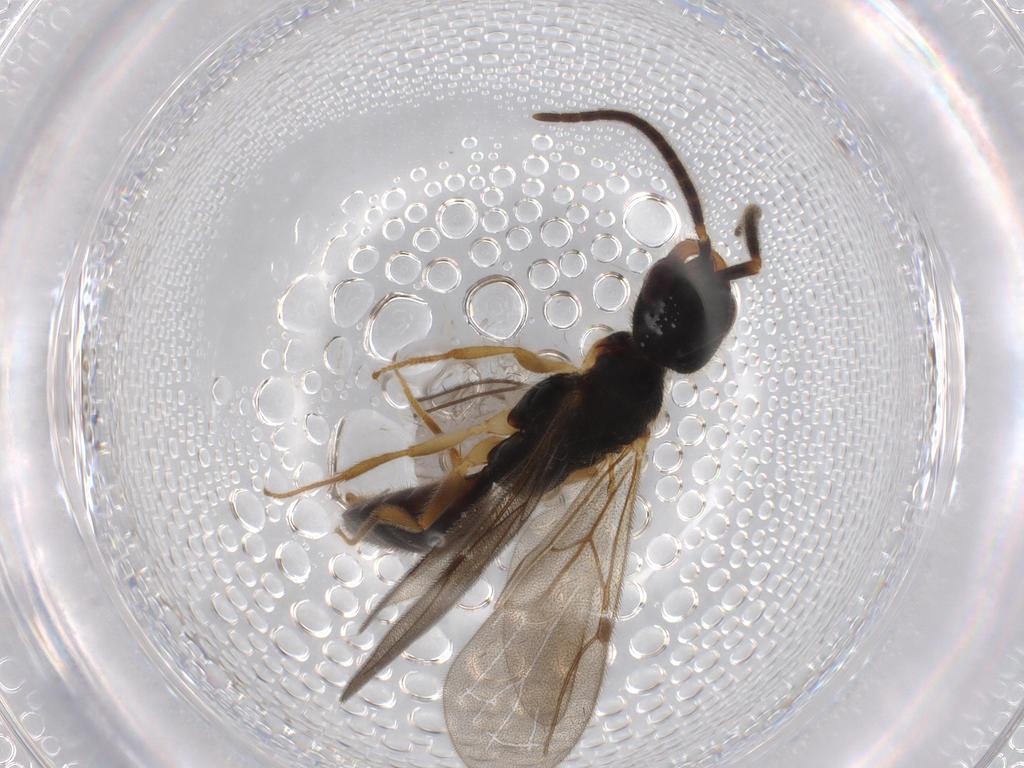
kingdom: Animalia
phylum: Arthropoda
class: Insecta
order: Hymenoptera
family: Bethylidae
